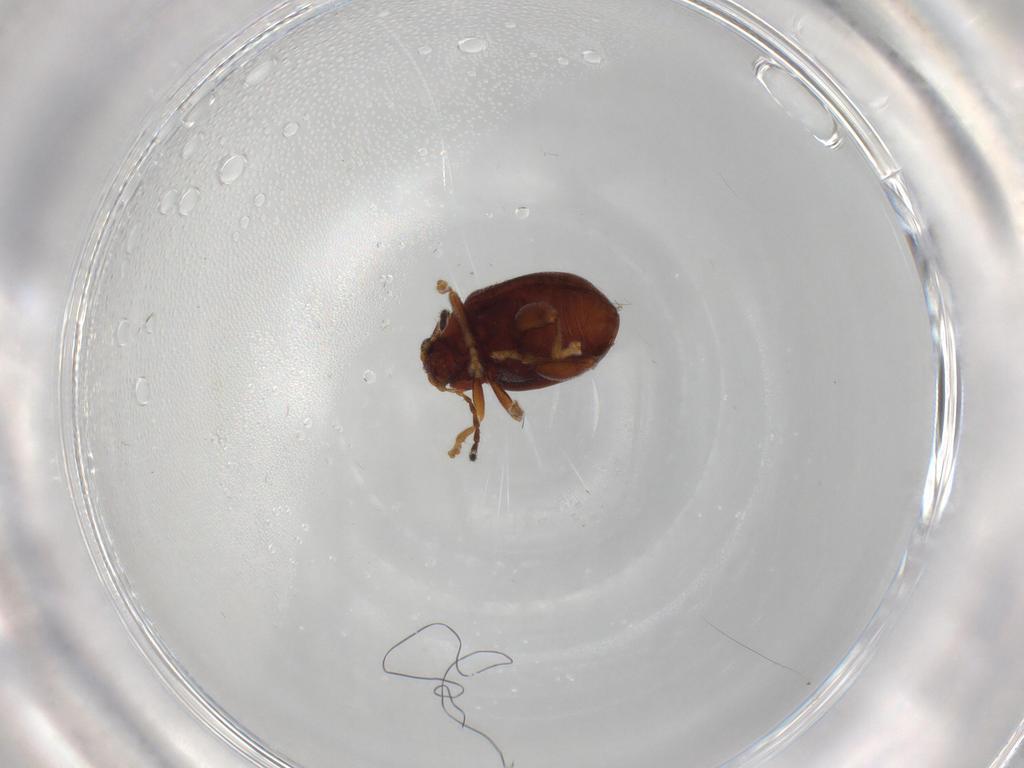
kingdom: Animalia
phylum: Arthropoda
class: Insecta
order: Coleoptera
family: Chrysomelidae
